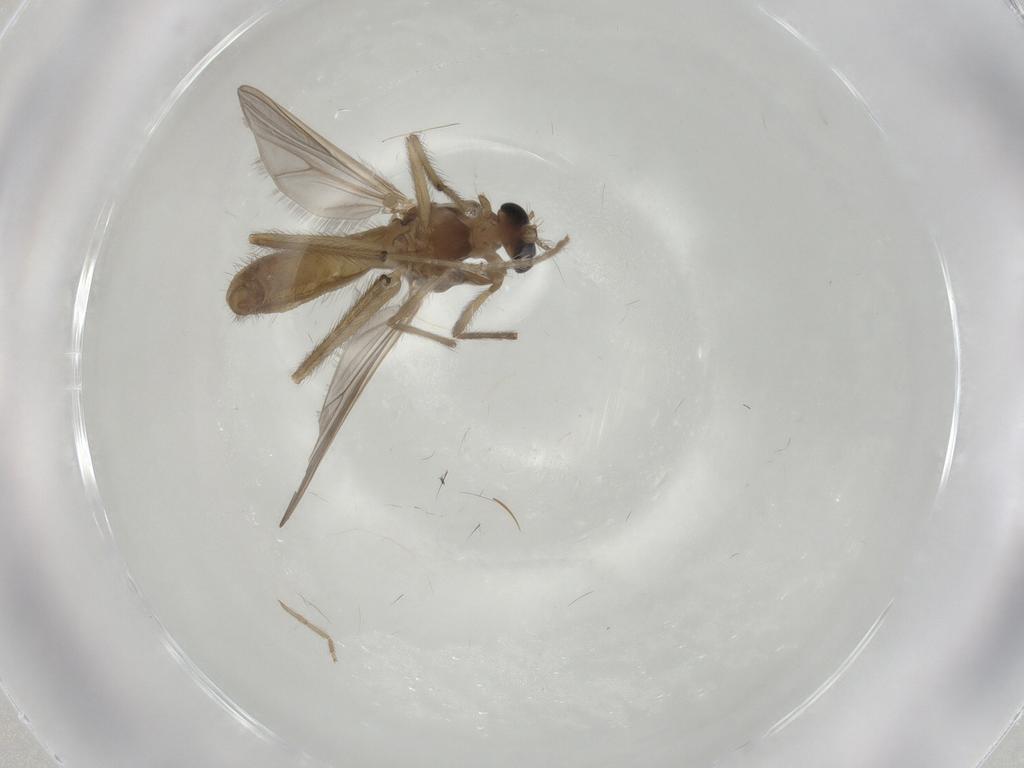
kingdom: Animalia
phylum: Arthropoda
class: Insecta
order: Diptera
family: Chironomidae
